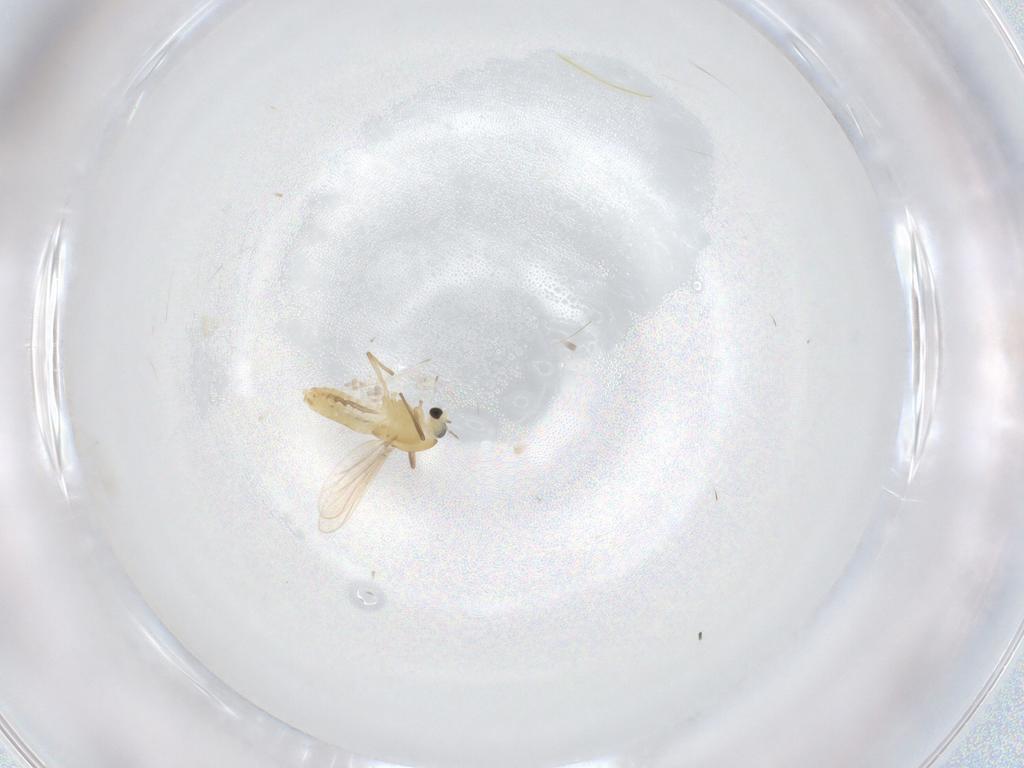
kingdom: Animalia
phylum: Arthropoda
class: Insecta
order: Diptera
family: Chironomidae
